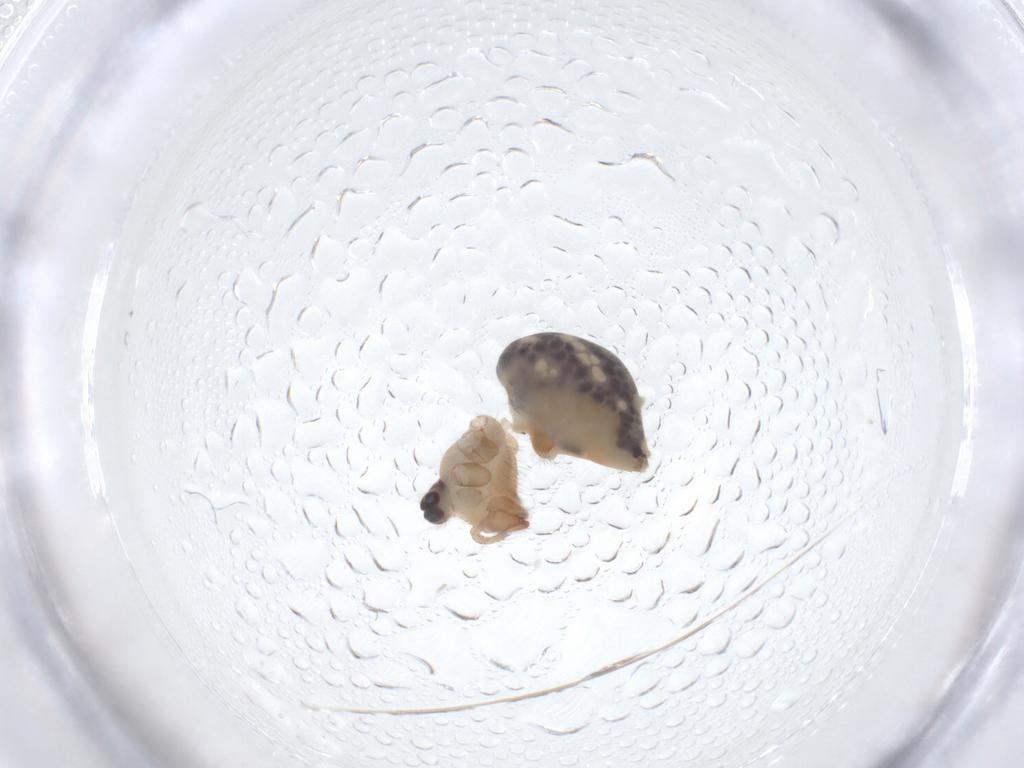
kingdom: Animalia
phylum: Arthropoda
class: Arachnida
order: Araneae
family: Pholcidae
